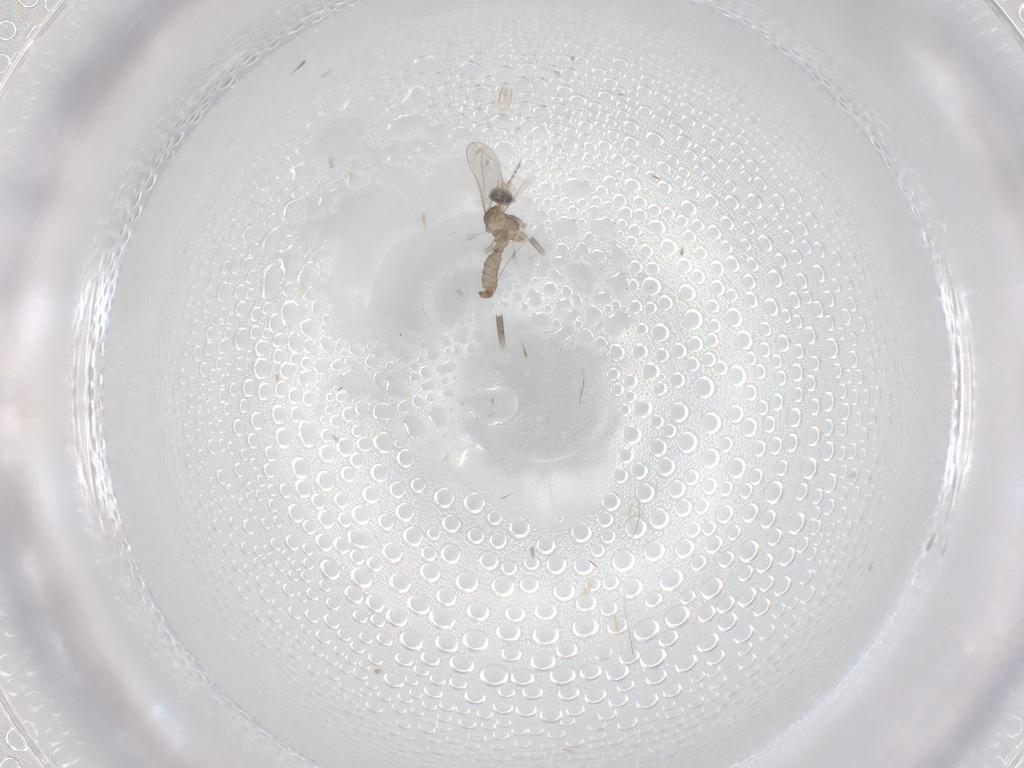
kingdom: Animalia
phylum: Arthropoda
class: Insecta
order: Diptera
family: Cecidomyiidae
